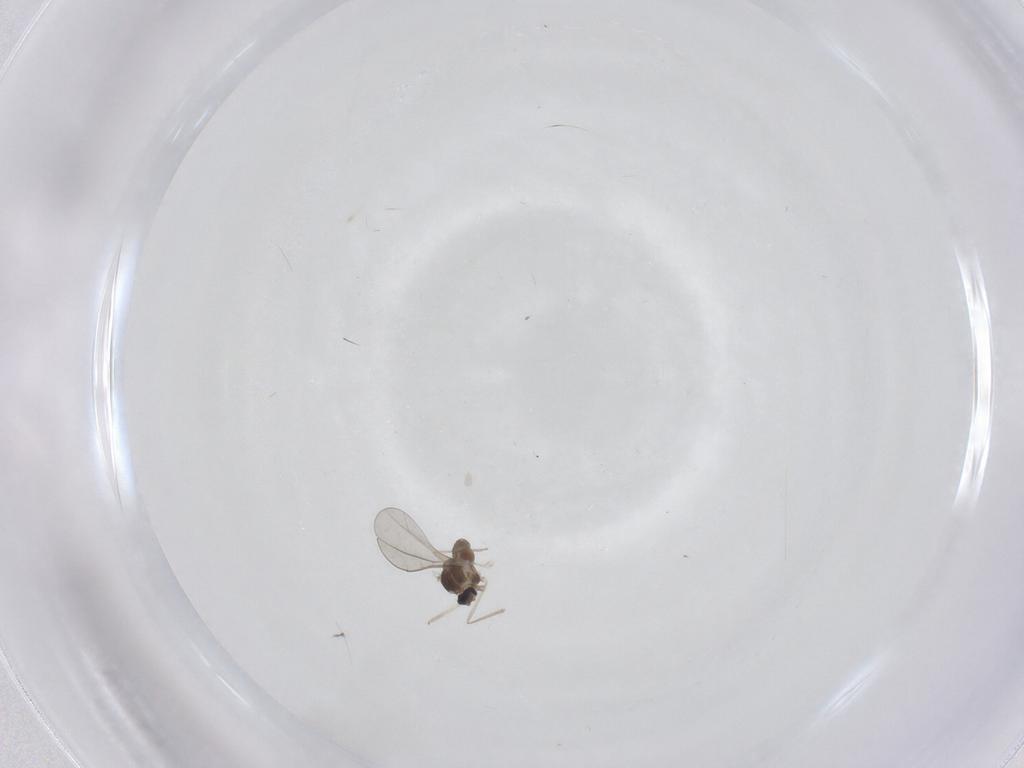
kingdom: Animalia
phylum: Arthropoda
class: Insecta
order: Diptera
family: Cecidomyiidae
